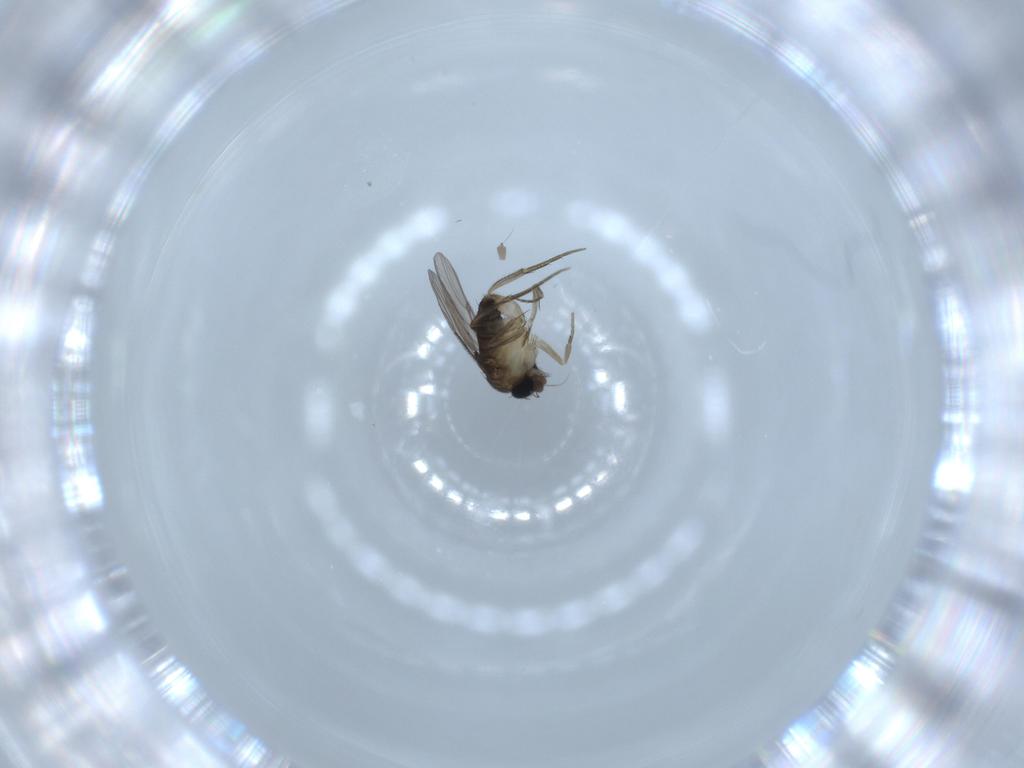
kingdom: Animalia
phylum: Arthropoda
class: Insecta
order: Diptera
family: Phoridae
